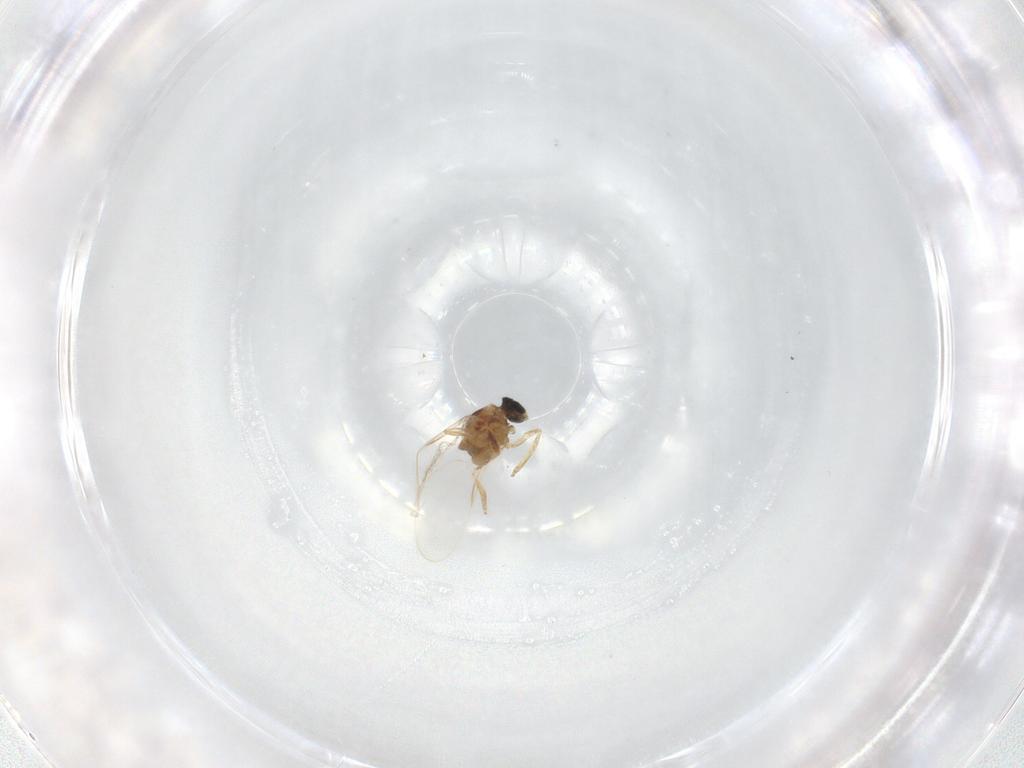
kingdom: Animalia
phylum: Arthropoda
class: Insecta
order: Diptera
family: Cecidomyiidae
